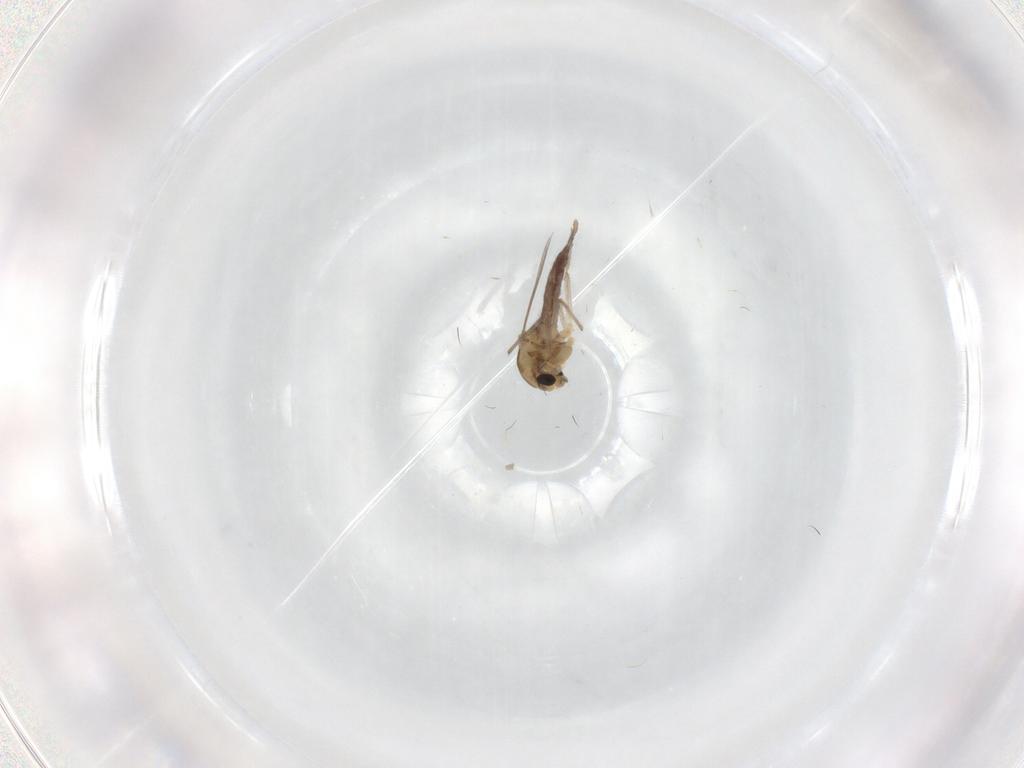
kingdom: Animalia
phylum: Arthropoda
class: Insecta
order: Diptera
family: Chironomidae
